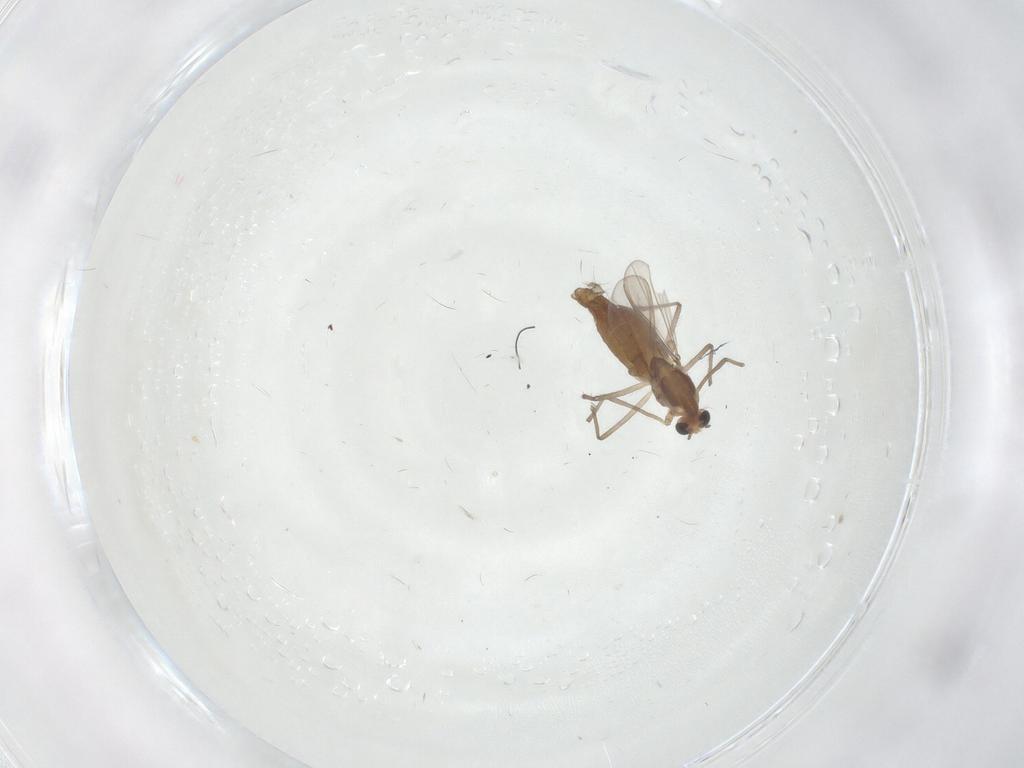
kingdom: Animalia
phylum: Arthropoda
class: Insecta
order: Diptera
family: Chironomidae
